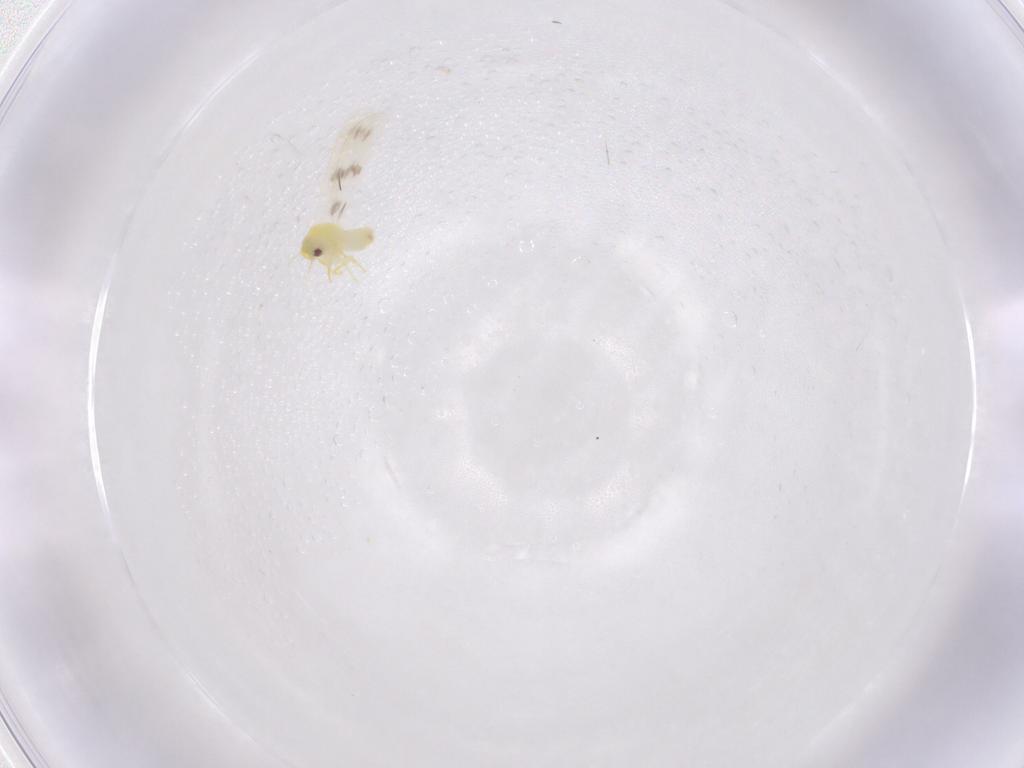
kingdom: Animalia
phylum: Arthropoda
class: Insecta
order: Hemiptera
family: Aleyrodidae
